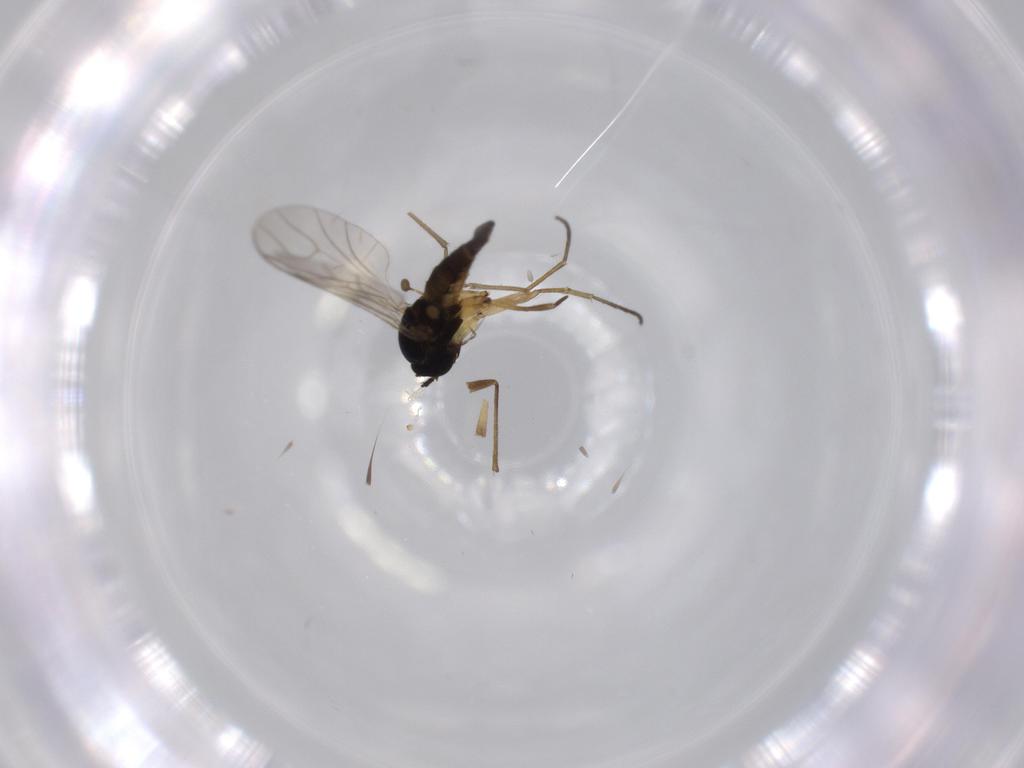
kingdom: Animalia
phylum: Arthropoda
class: Insecta
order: Diptera
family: Sciaridae
